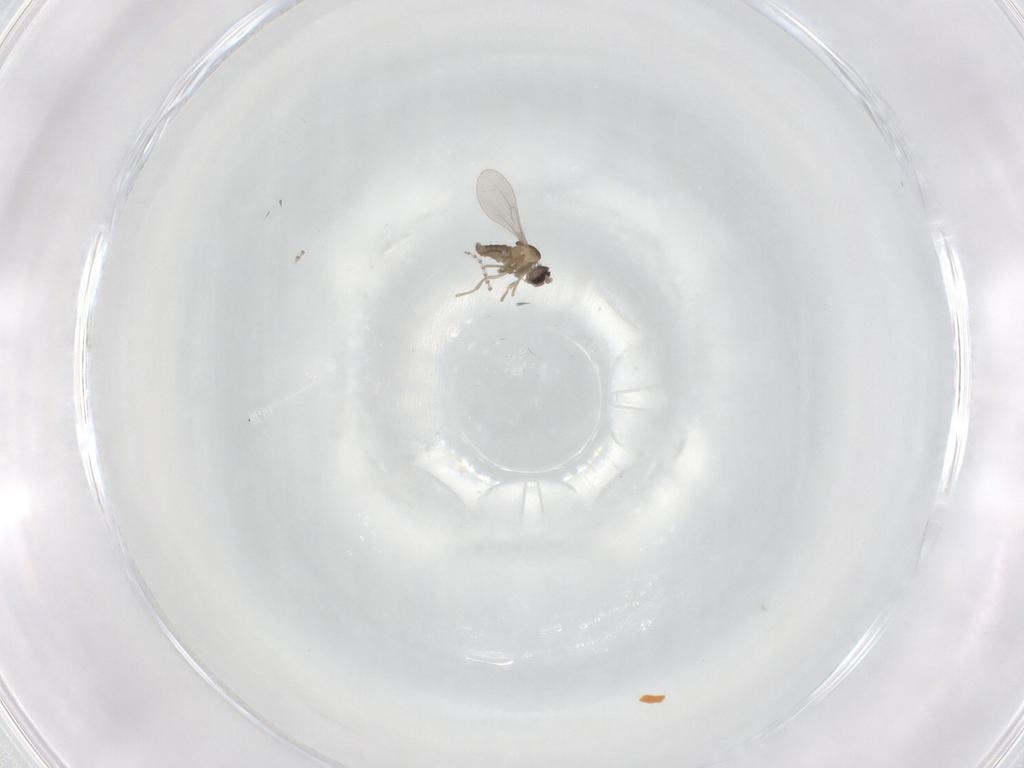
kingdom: Animalia
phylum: Arthropoda
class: Insecta
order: Diptera
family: Cecidomyiidae
